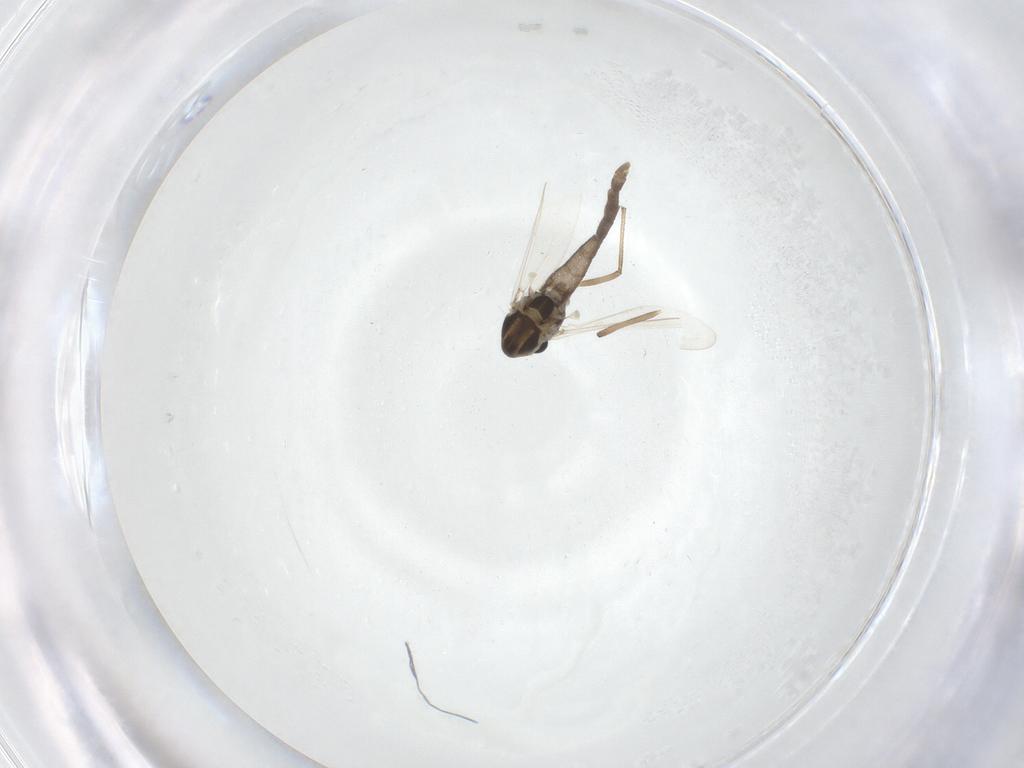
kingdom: Animalia
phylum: Arthropoda
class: Insecta
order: Diptera
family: Chironomidae
